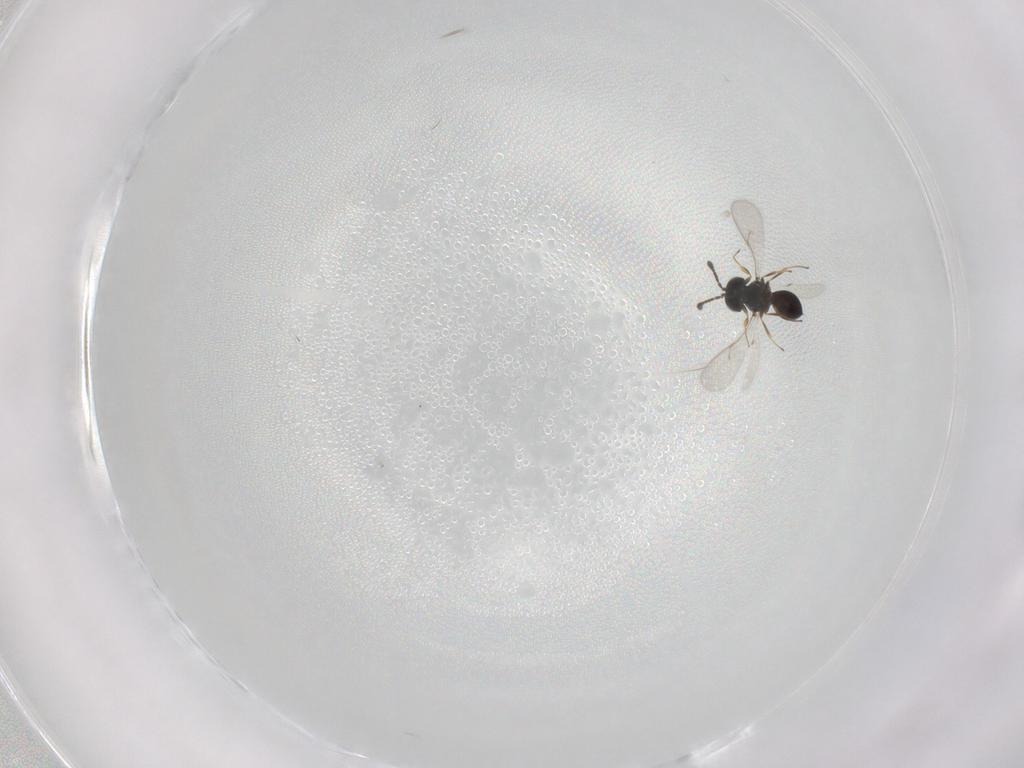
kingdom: Animalia
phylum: Arthropoda
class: Insecta
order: Hymenoptera
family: Scelionidae
